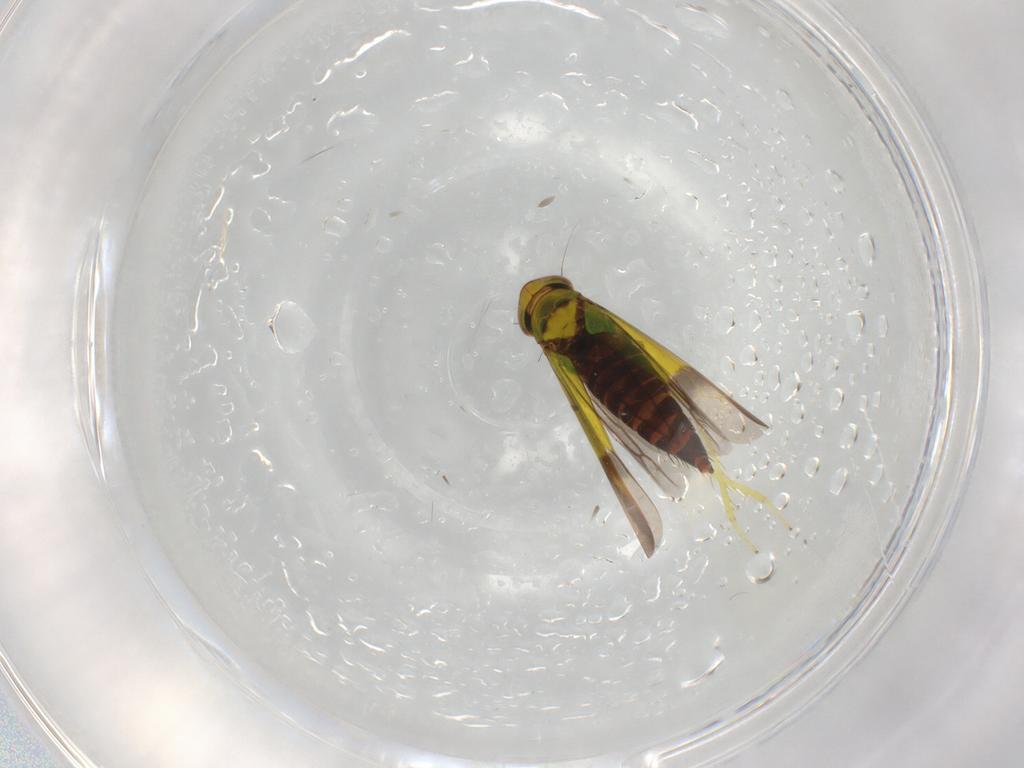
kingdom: Animalia
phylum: Arthropoda
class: Insecta
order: Hemiptera
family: Cicadellidae
